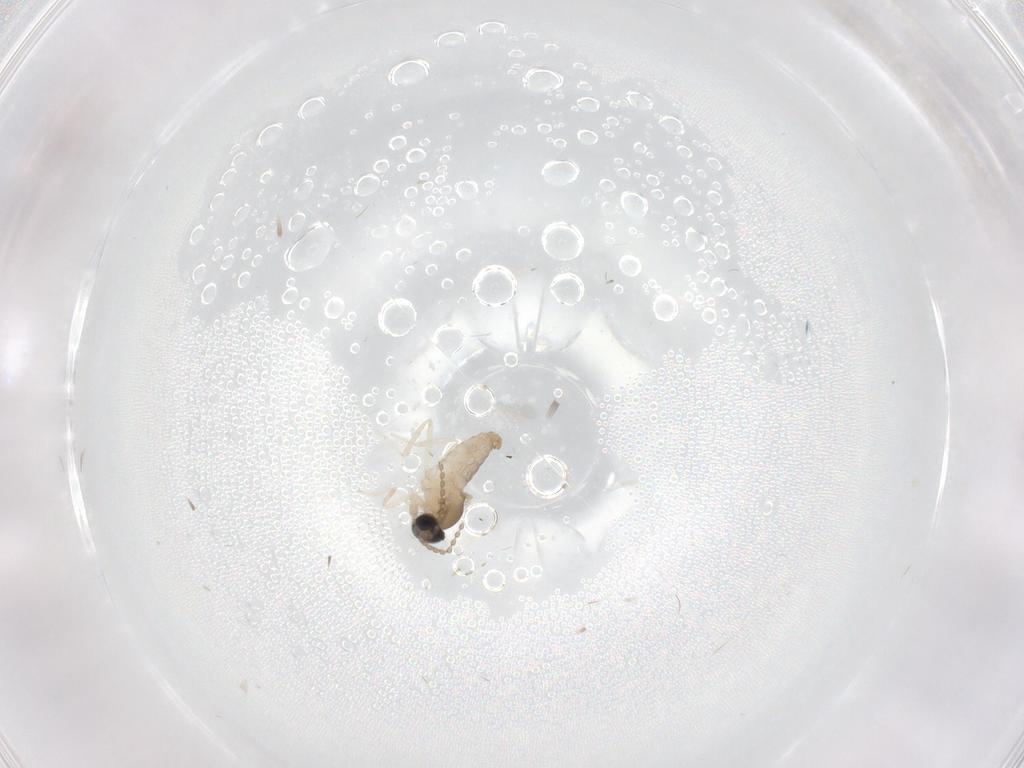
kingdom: Animalia
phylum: Arthropoda
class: Insecta
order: Diptera
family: Cecidomyiidae
